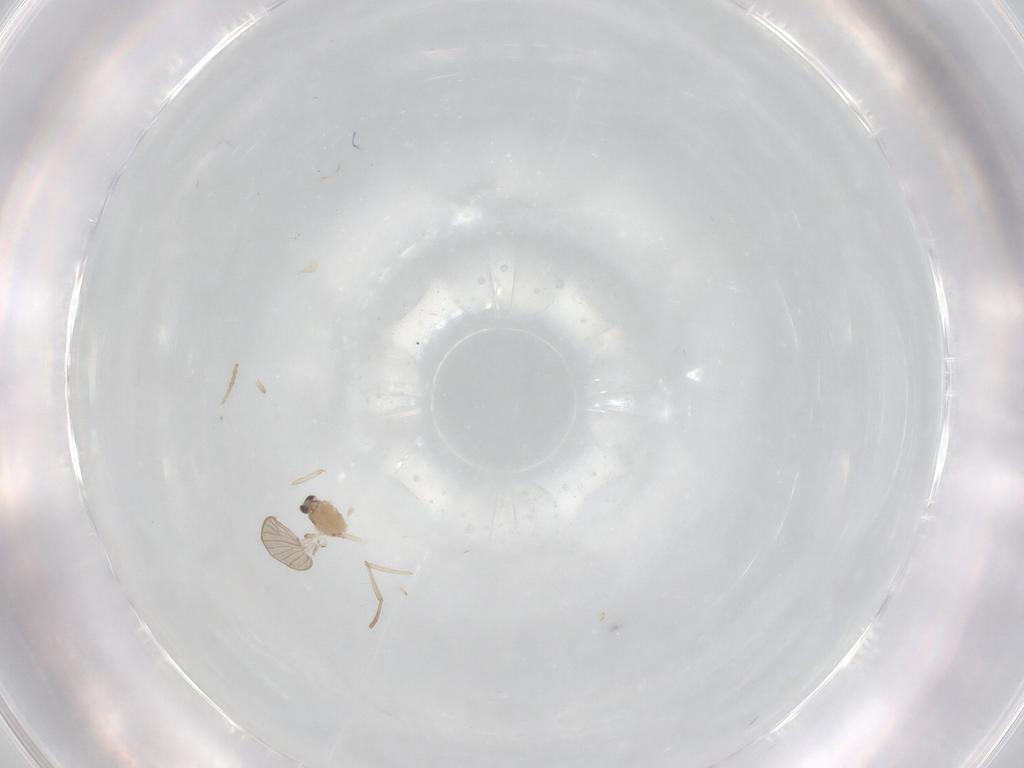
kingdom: Animalia
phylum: Arthropoda
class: Insecta
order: Diptera
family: Psychodidae
